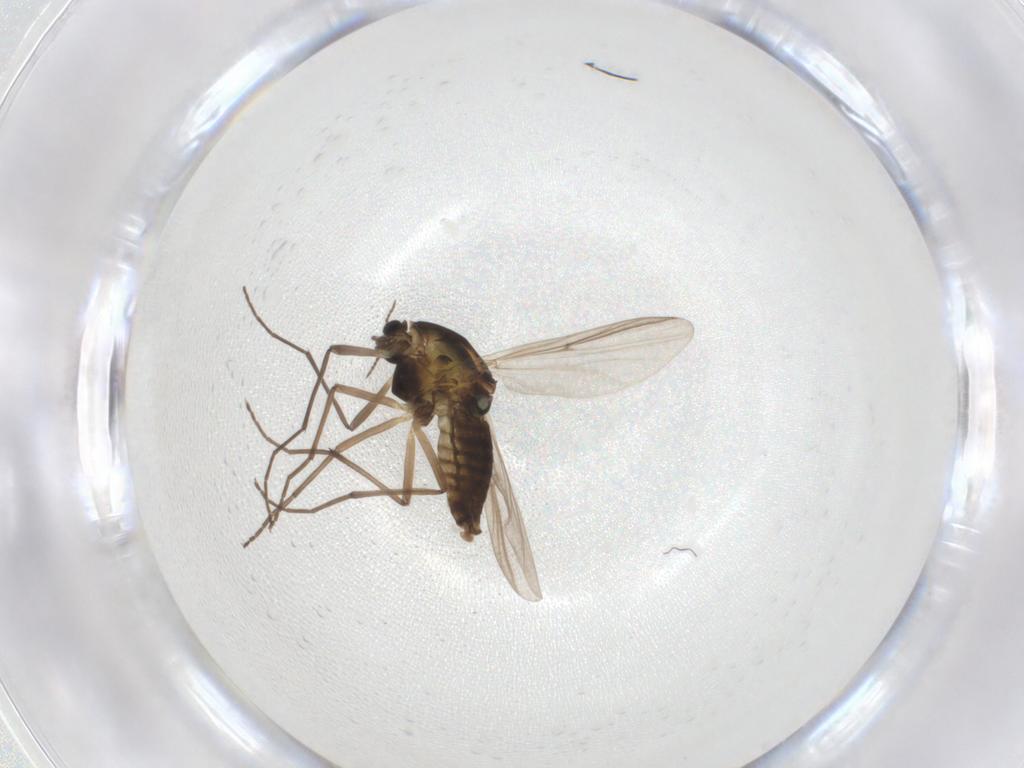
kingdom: Animalia
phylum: Arthropoda
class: Insecta
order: Diptera
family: Chironomidae
